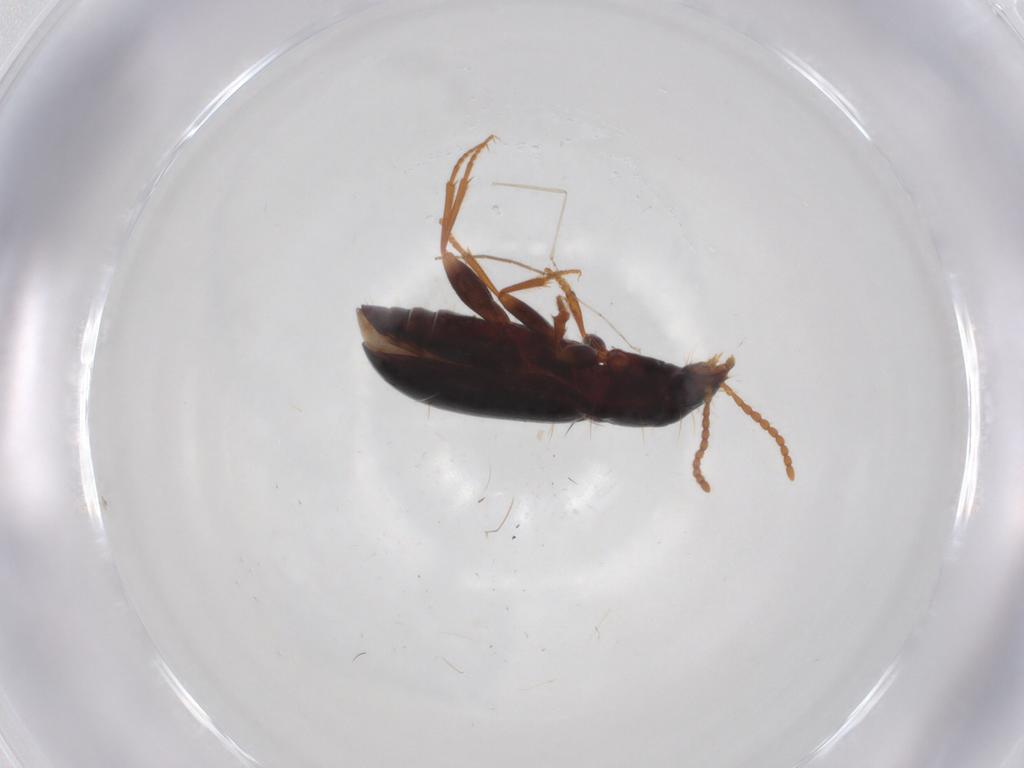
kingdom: Animalia
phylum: Arthropoda
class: Insecta
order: Coleoptera
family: Carabidae
